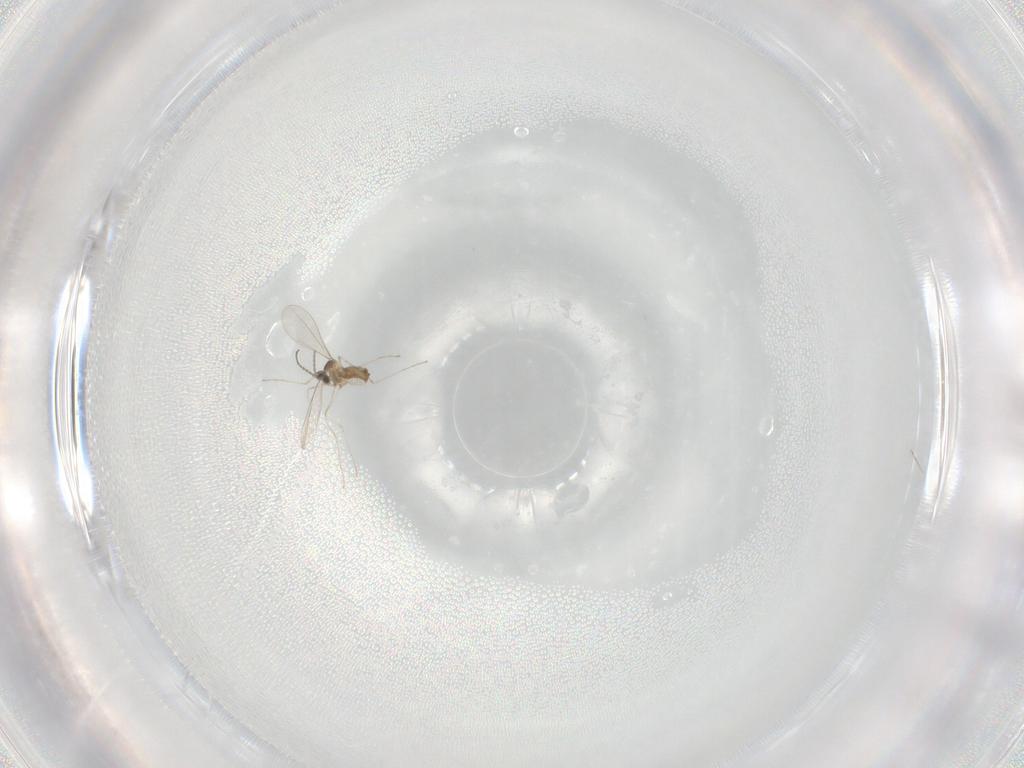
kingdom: Animalia
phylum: Arthropoda
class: Insecta
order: Diptera
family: Cecidomyiidae
